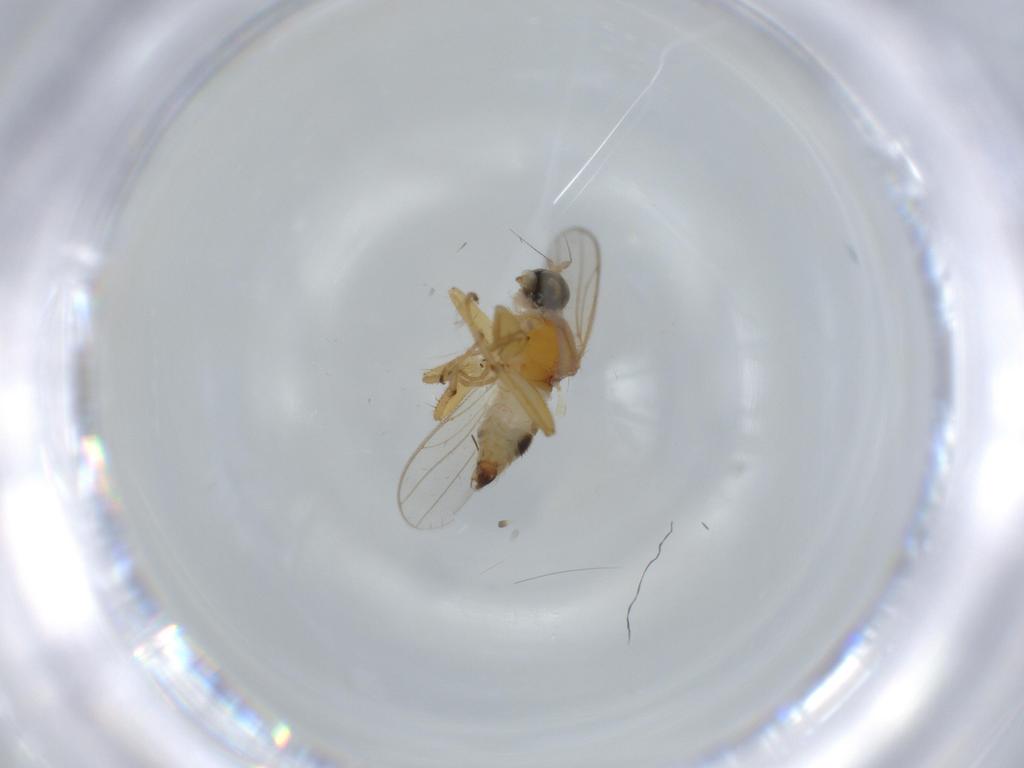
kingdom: Animalia
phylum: Arthropoda
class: Insecta
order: Diptera
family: Hybotidae
